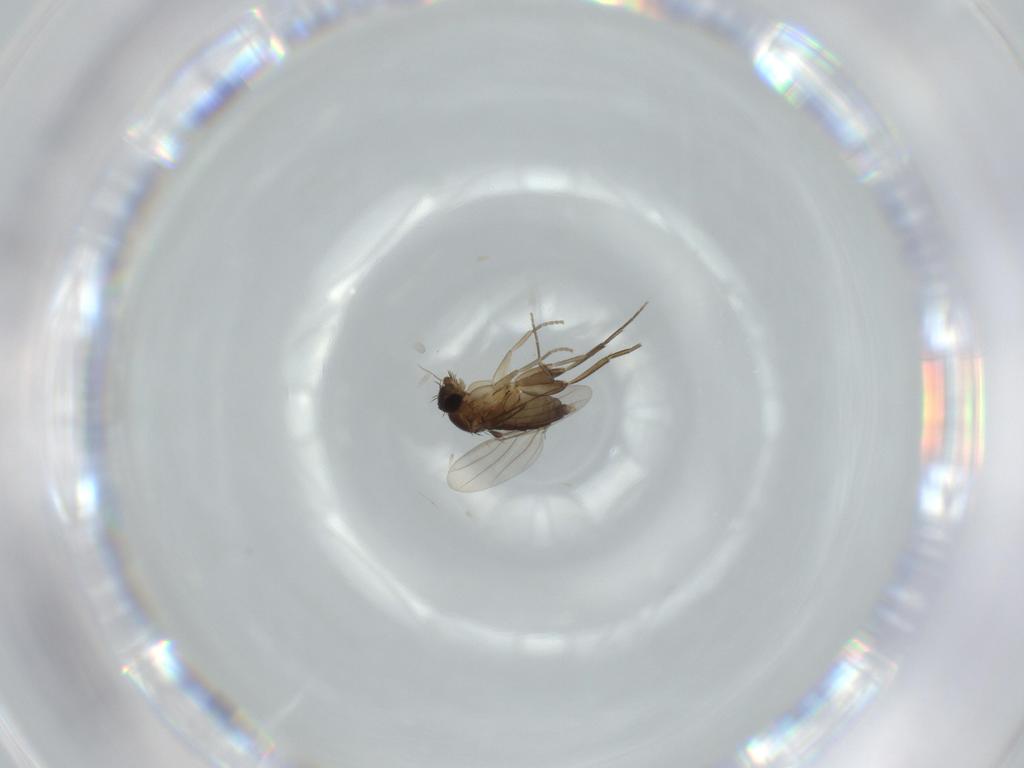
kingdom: Animalia
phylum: Arthropoda
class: Insecta
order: Diptera
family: Phoridae
